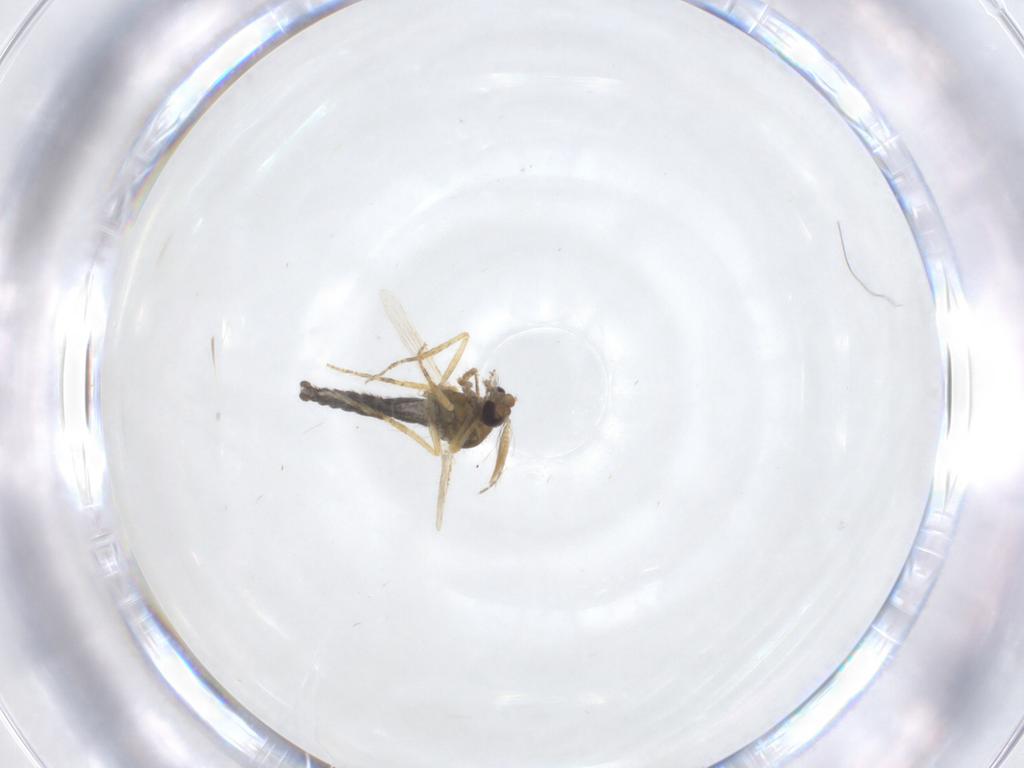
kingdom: Animalia
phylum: Arthropoda
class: Insecta
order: Diptera
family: Ceratopogonidae
